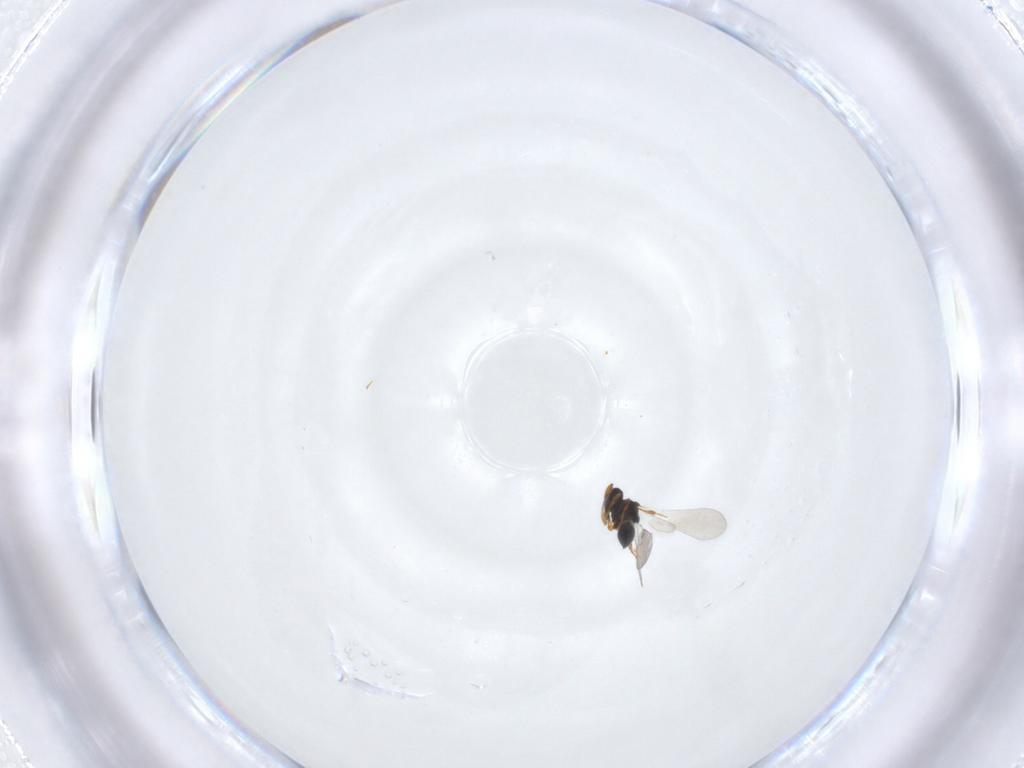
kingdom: Animalia
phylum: Arthropoda
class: Insecta
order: Hymenoptera
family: Platygastridae
